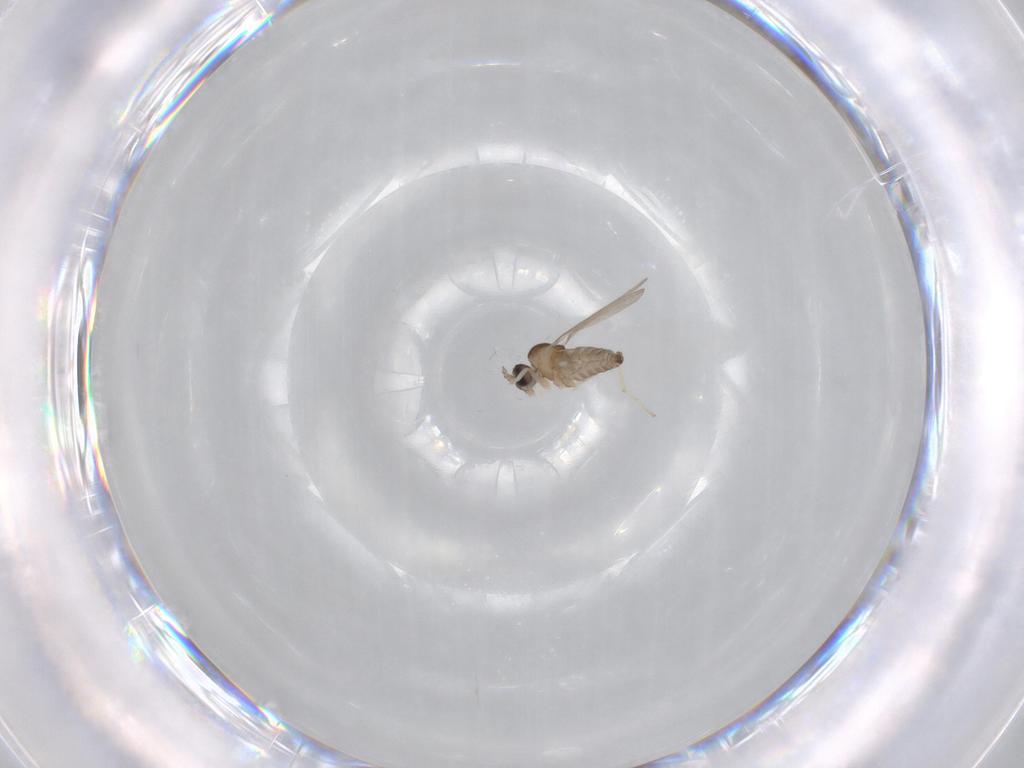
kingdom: Animalia
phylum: Arthropoda
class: Insecta
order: Diptera
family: Cecidomyiidae
